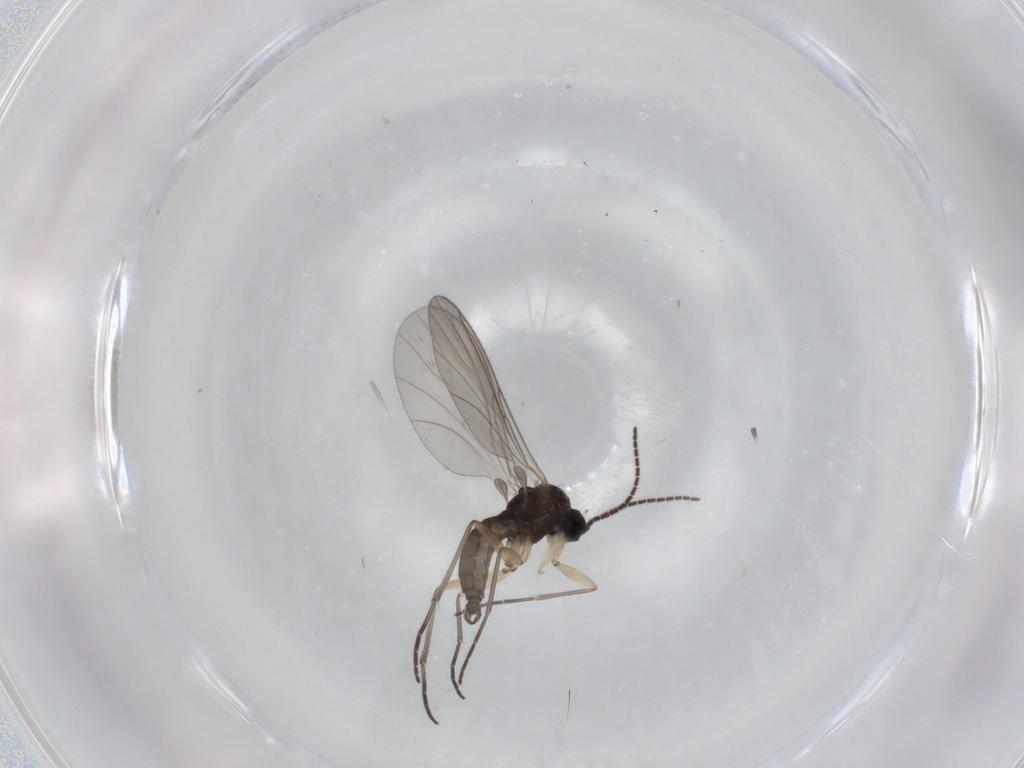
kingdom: Animalia
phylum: Arthropoda
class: Insecta
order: Diptera
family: Sciaridae
